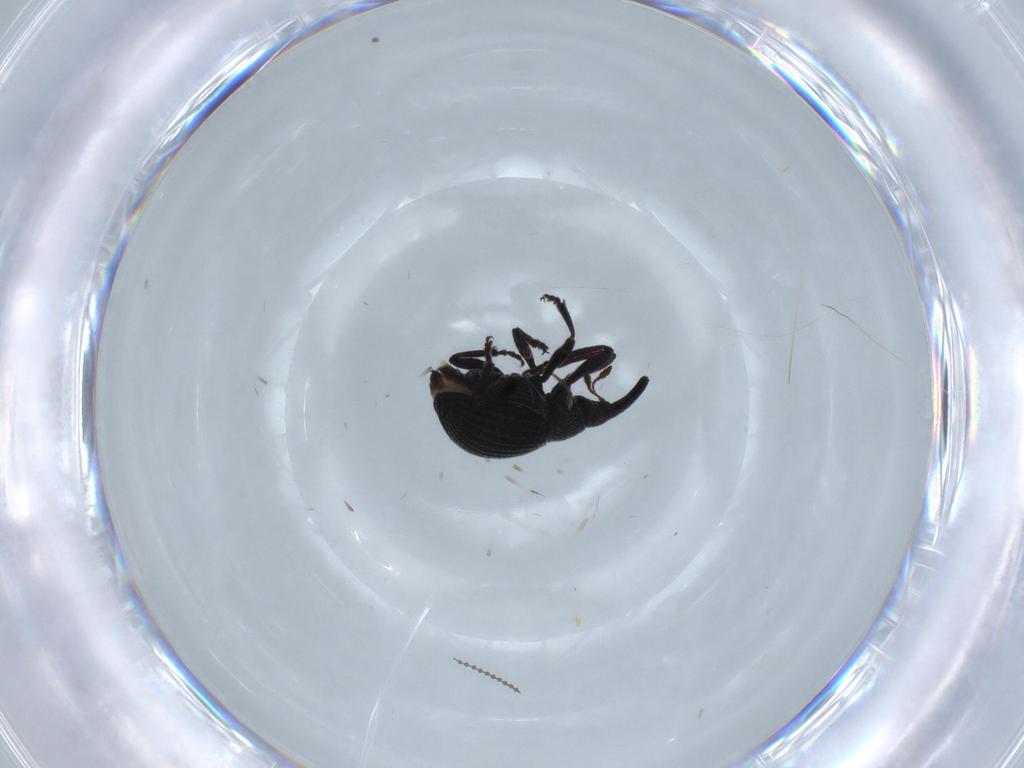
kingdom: Animalia
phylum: Arthropoda
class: Insecta
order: Coleoptera
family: Brentidae
